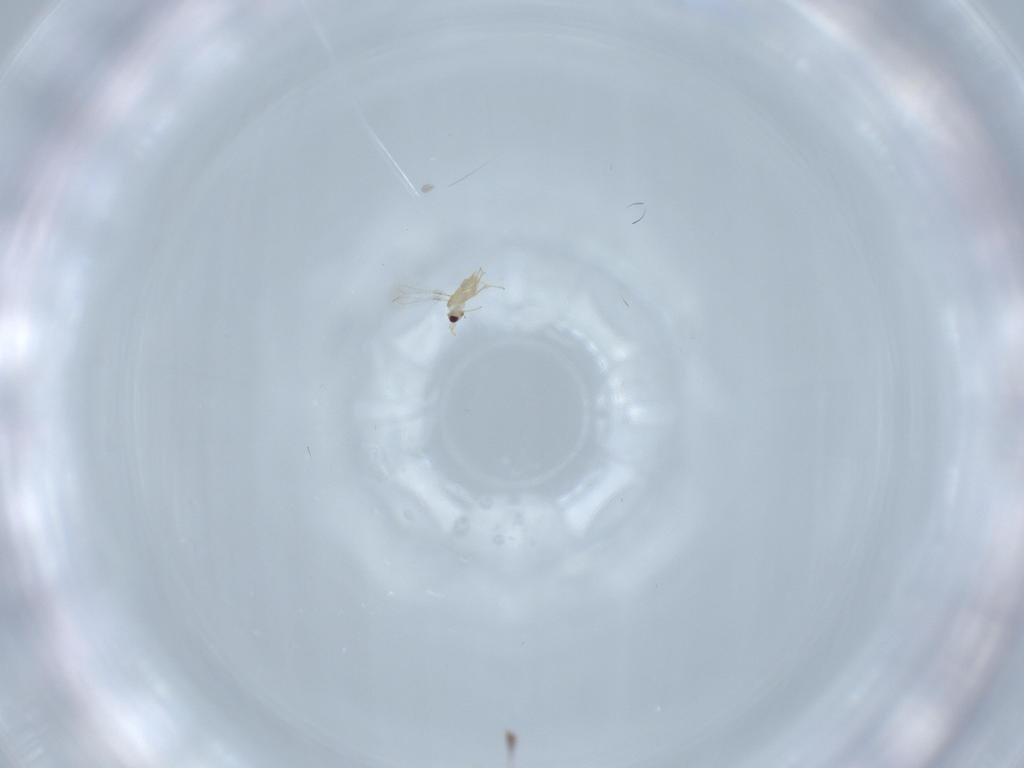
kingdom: Animalia
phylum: Arthropoda
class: Insecta
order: Hymenoptera
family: Mymaridae
